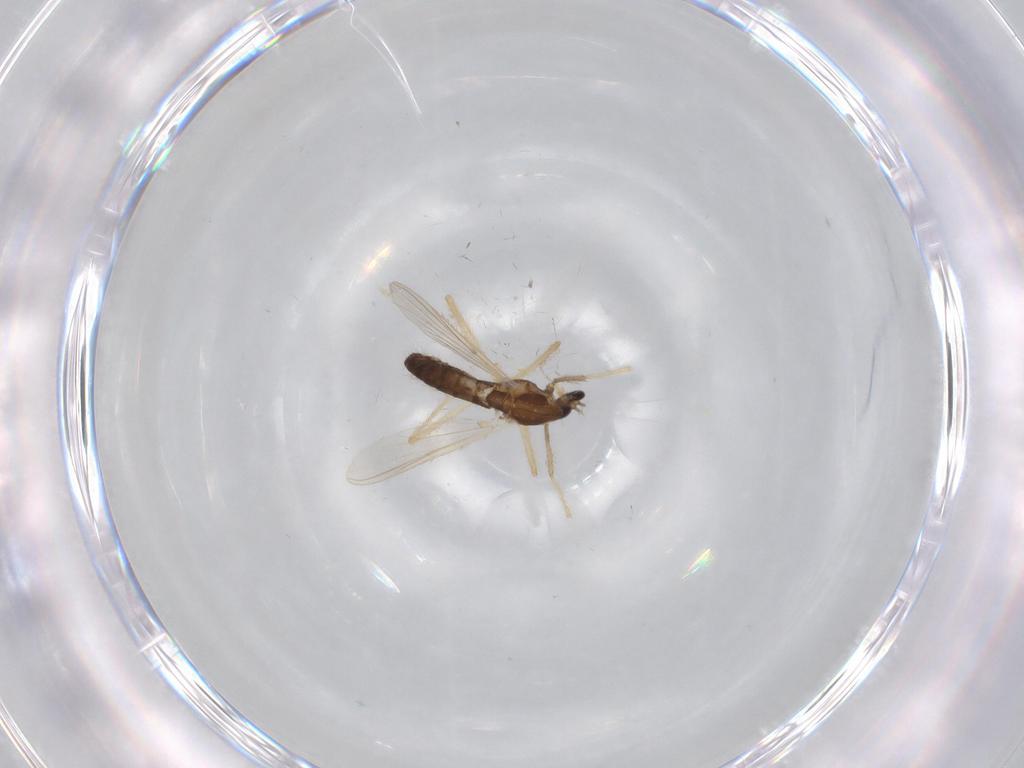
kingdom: Animalia
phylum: Arthropoda
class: Insecta
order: Diptera
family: Chironomidae
